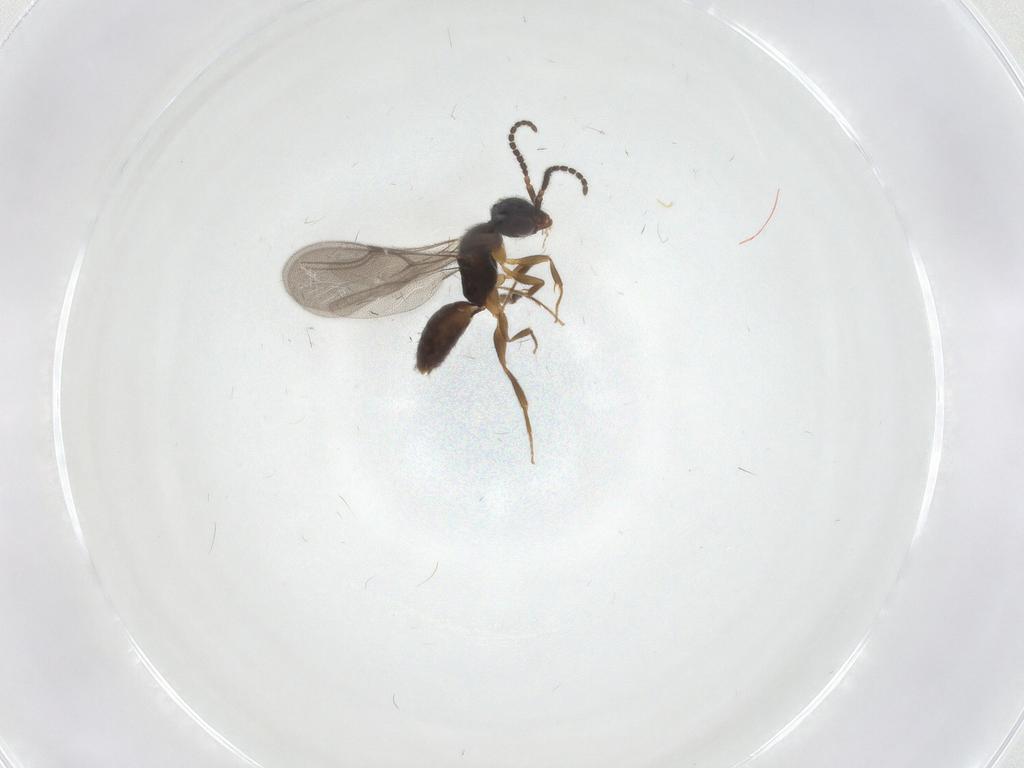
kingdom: Animalia
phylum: Arthropoda
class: Insecta
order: Hymenoptera
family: Bethylidae
